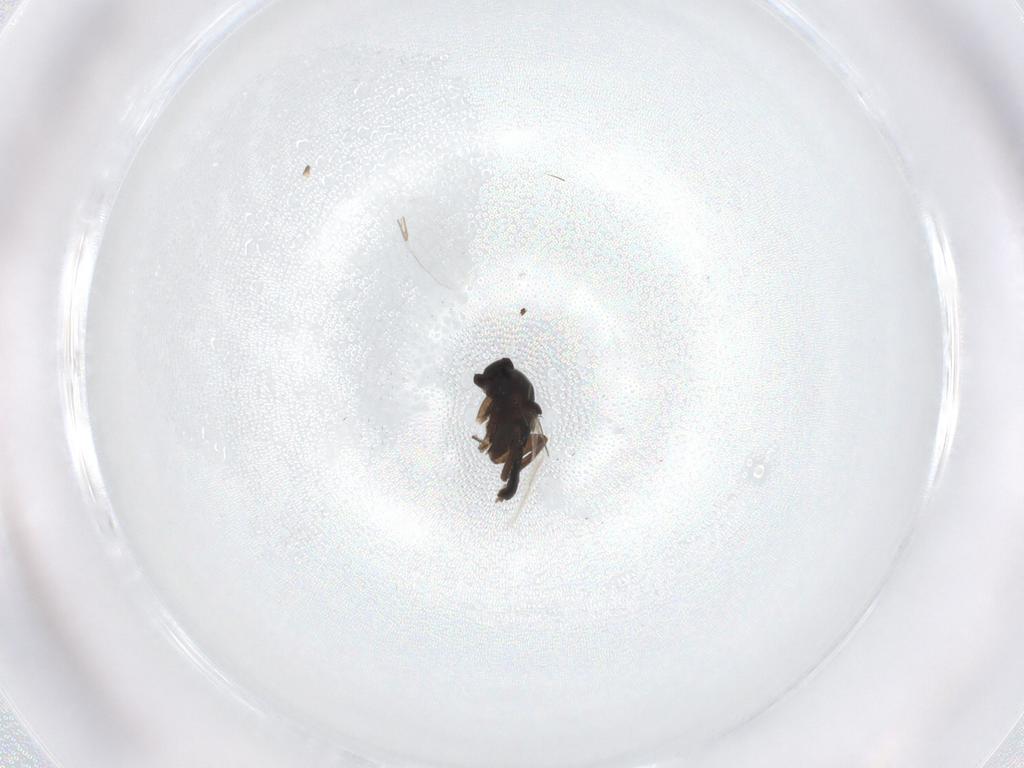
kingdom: Animalia
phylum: Arthropoda
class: Insecta
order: Diptera
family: Phoridae
